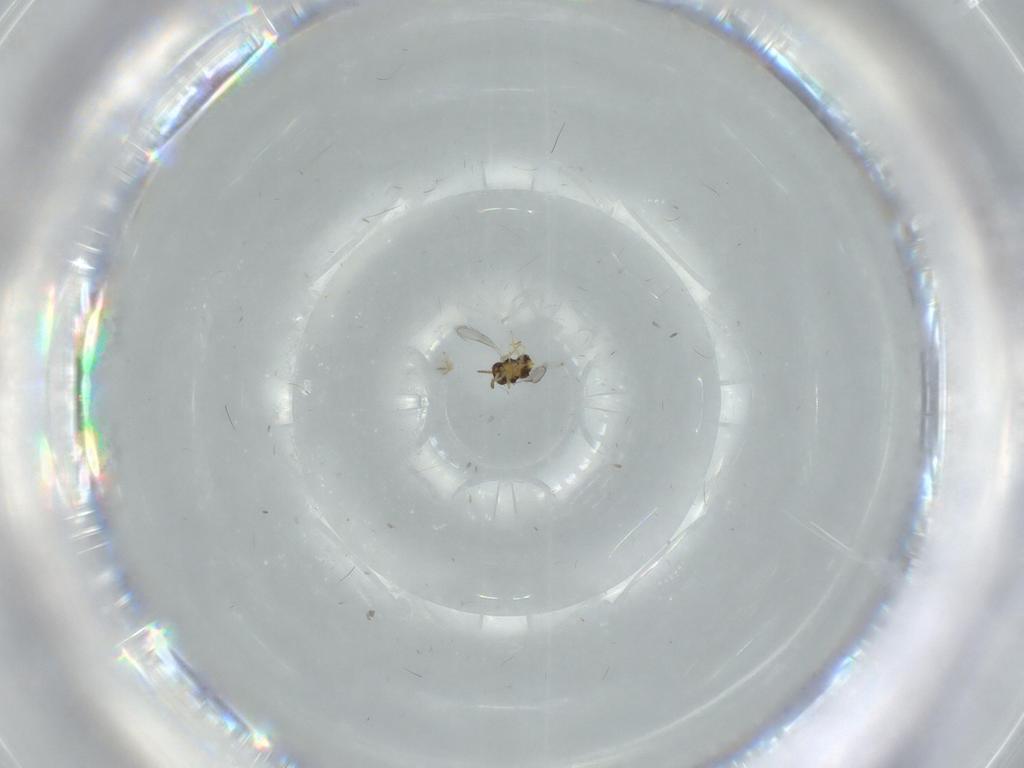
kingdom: Animalia
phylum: Arthropoda
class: Insecta
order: Hymenoptera
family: Aphelinidae
